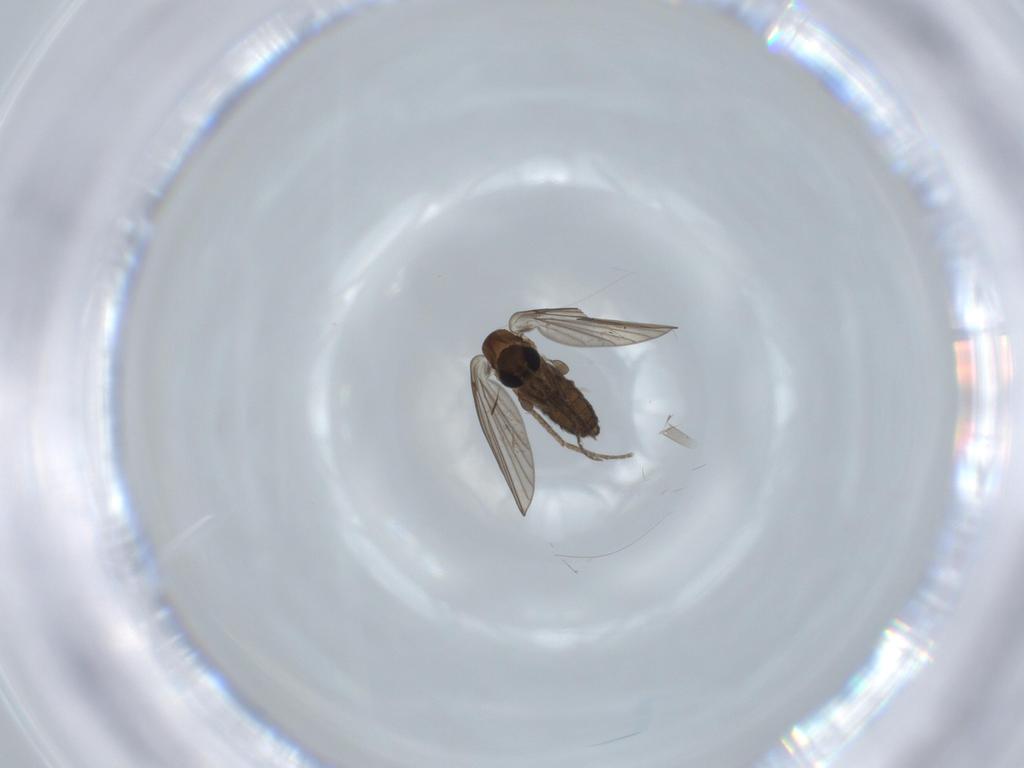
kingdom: Animalia
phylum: Arthropoda
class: Insecta
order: Diptera
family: Psychodidae
